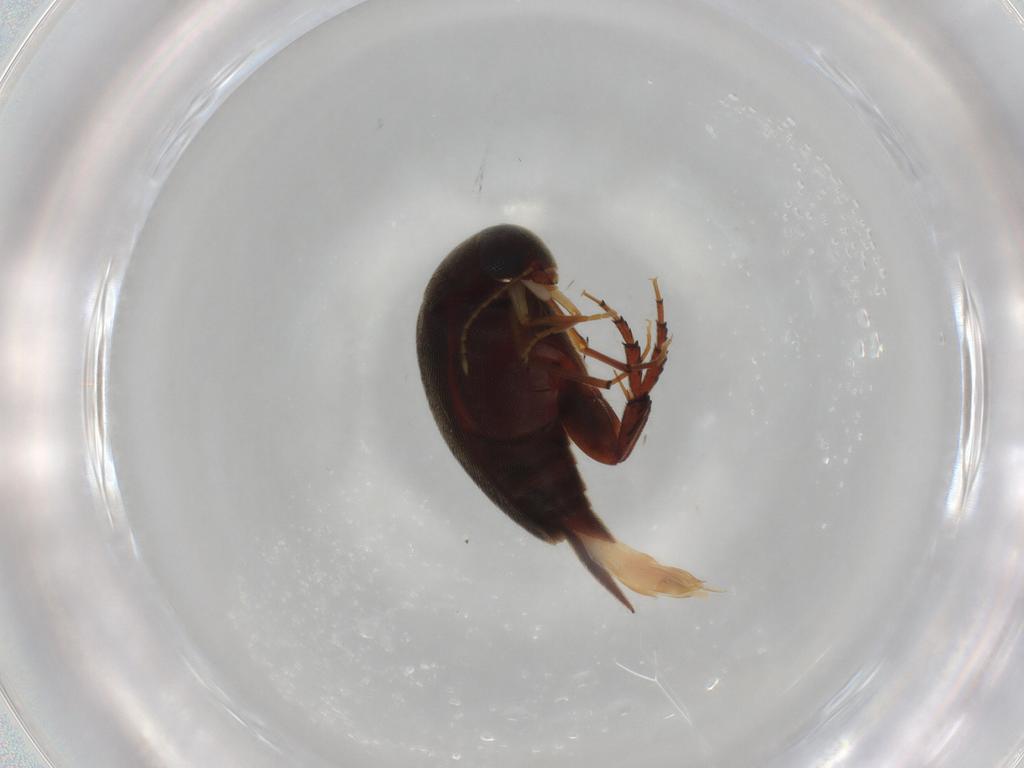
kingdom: Animalia
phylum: Arthropoda
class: Insecta
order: Coleoptera
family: Mordellidae
